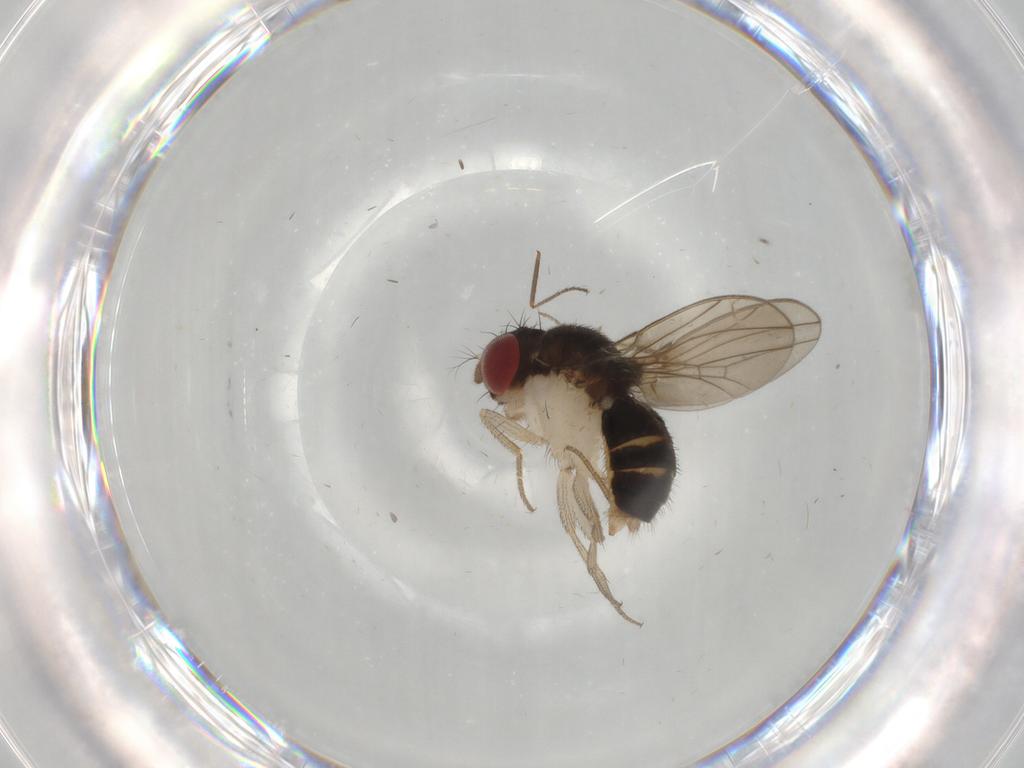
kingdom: Animalia
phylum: Arthropoda
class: Insecta
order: Diptera
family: Drosophilidae
